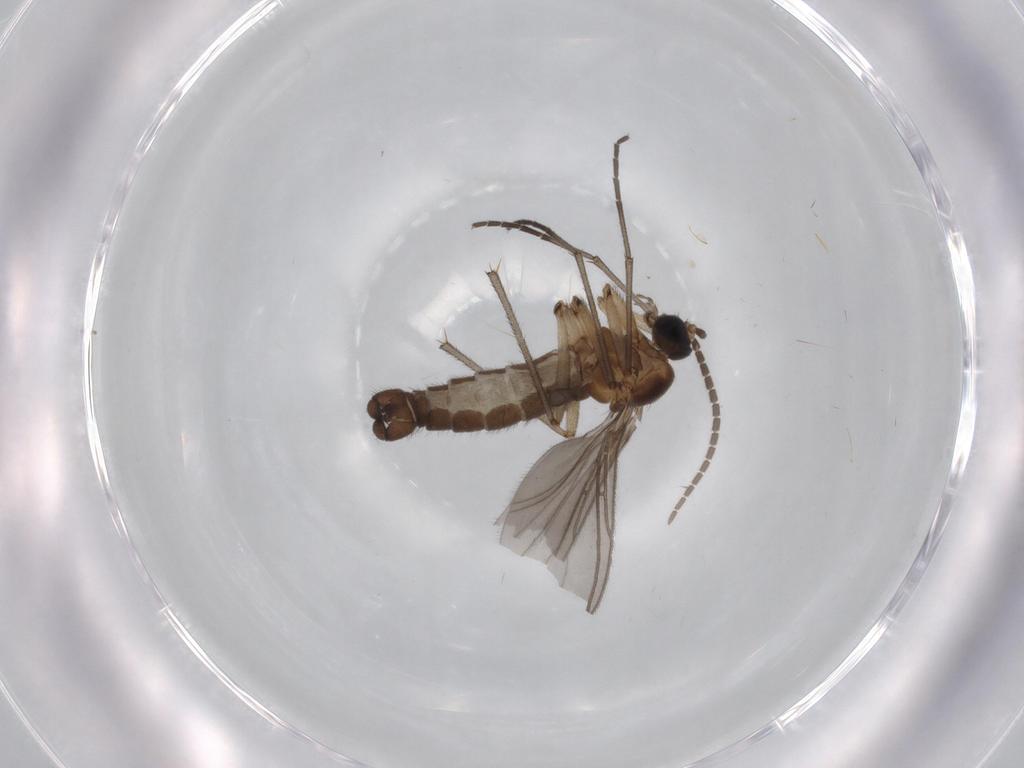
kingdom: Animalia
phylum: Arthropoda
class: Insecta
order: Diptera
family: Sciaridae
